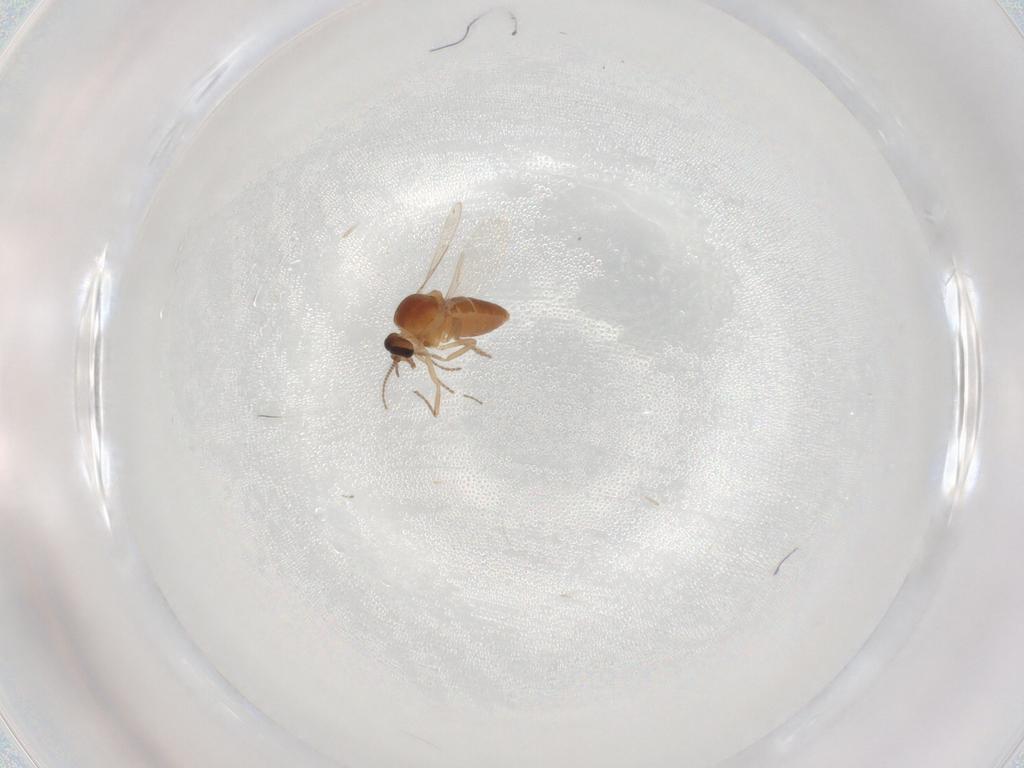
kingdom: Animalia
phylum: Arthropoda
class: Insecta
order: Diptera
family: Ceratopogonidae
